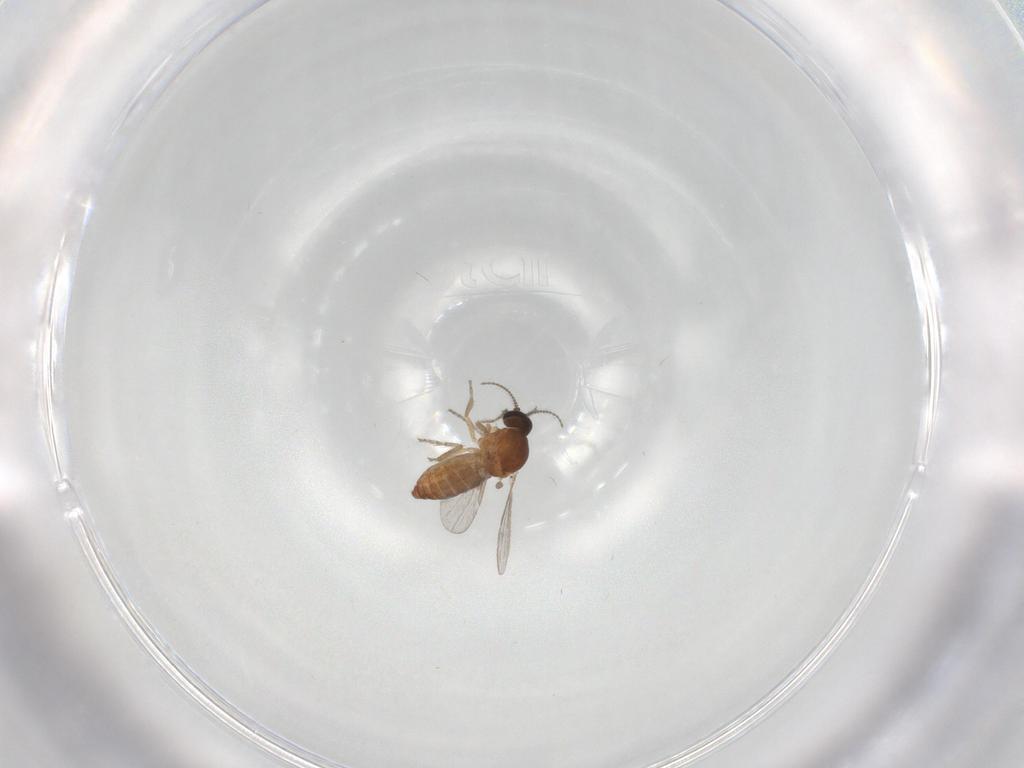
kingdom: Animalia
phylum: Arthropoda
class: Insecta
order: Diptera
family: Ceratopogonidae
